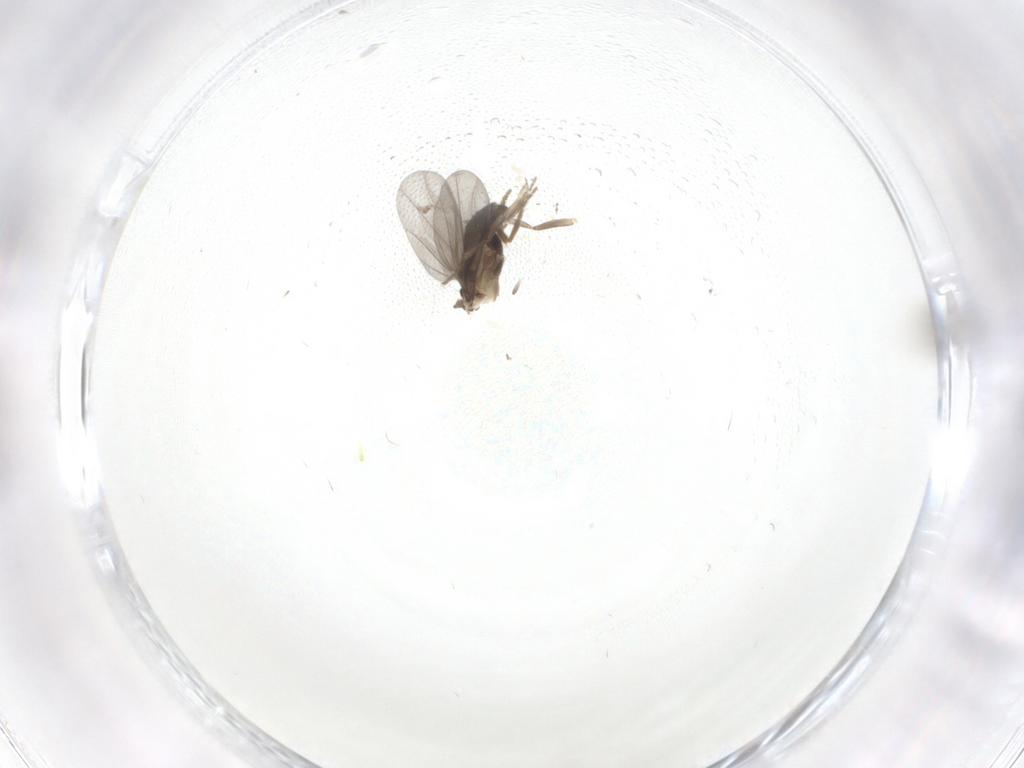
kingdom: Animalia
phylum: Arthropoda
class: Insecta
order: Diptera
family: Phoridae
